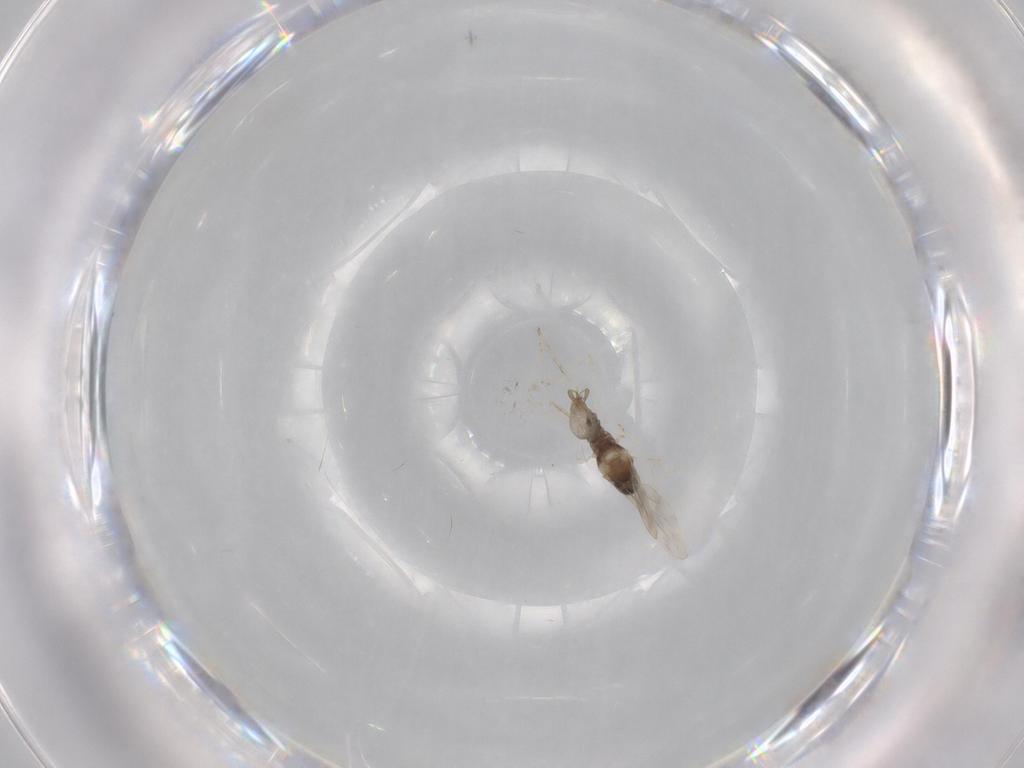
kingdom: Animalia
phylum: Arthropoda
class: Insecta
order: Diptera
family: Cecidomyiidae
